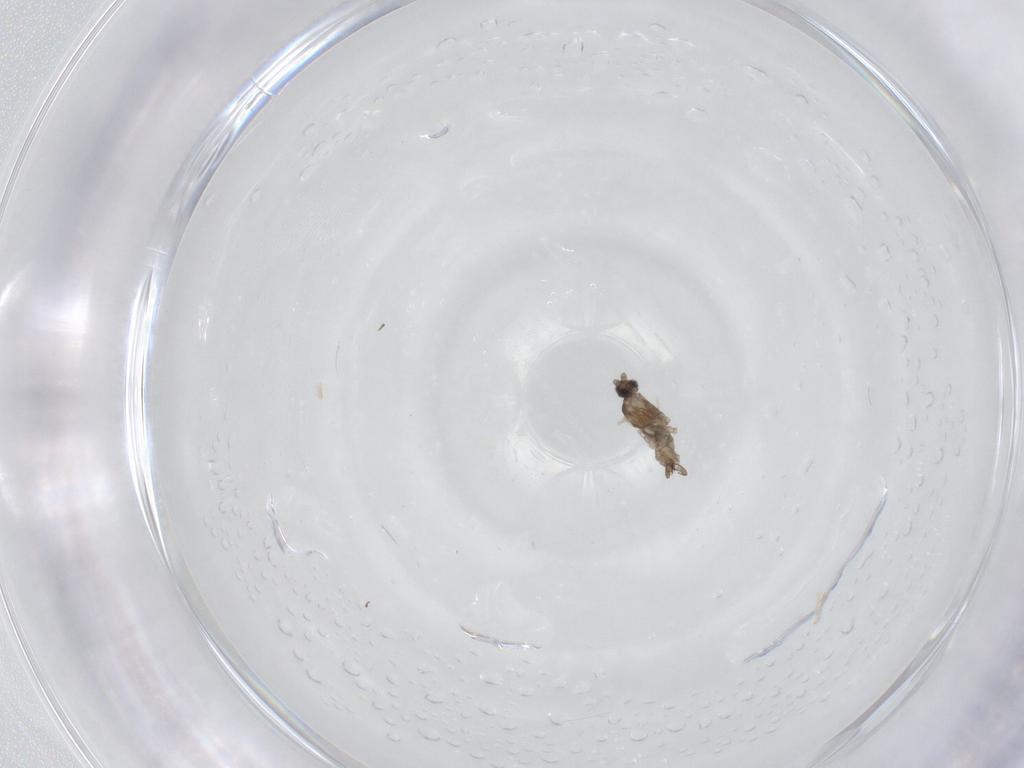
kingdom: Animalia
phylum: Arthropoda
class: Insecta
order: Diptera
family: Cecidomyiidae
